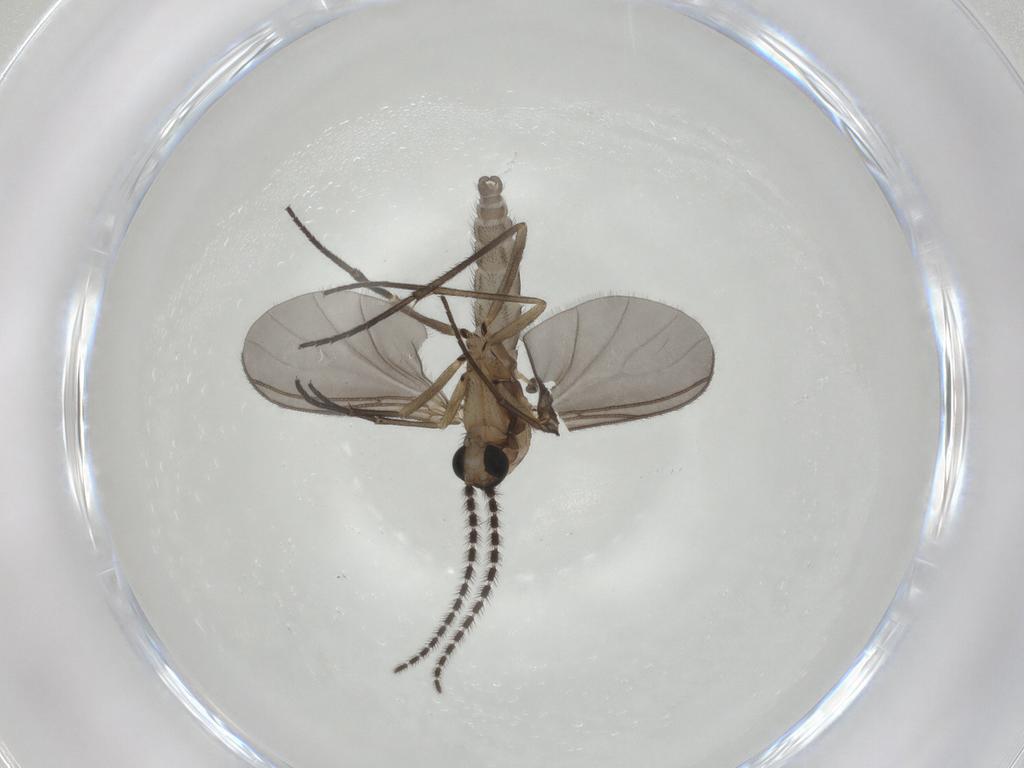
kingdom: Animalia
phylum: Arthropoda
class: Insecta
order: Diptera
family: Sciaridae
